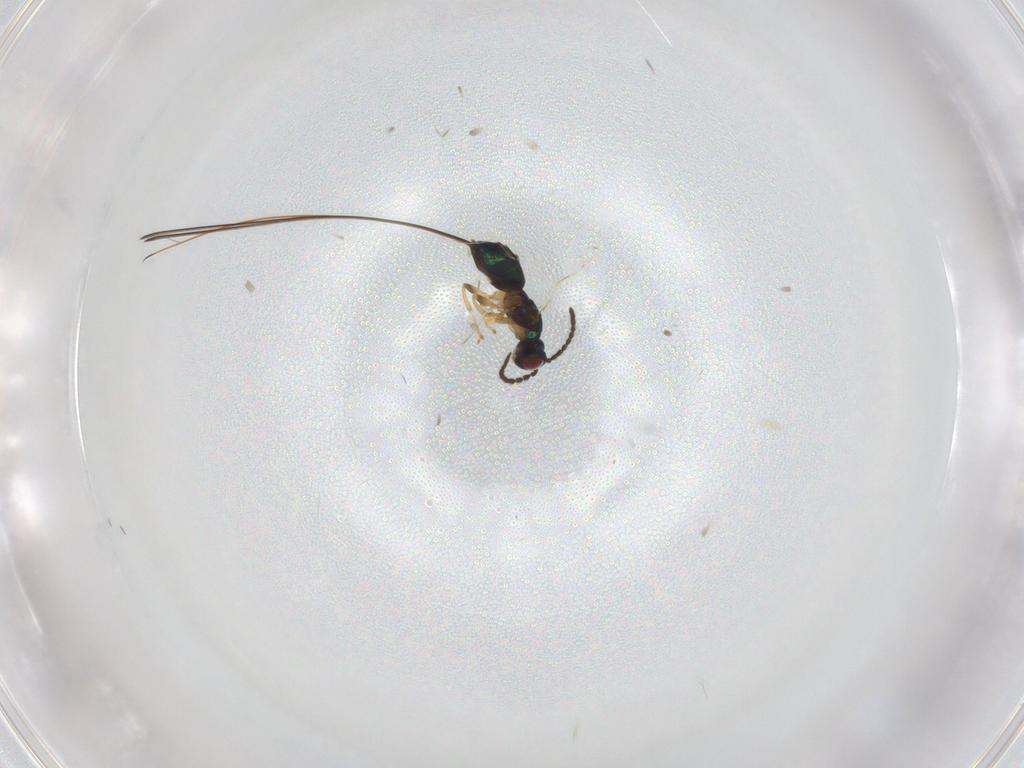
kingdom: Animalia
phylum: Arthropoda
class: Insecta
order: Hymenoptera
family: Pteromalidae
